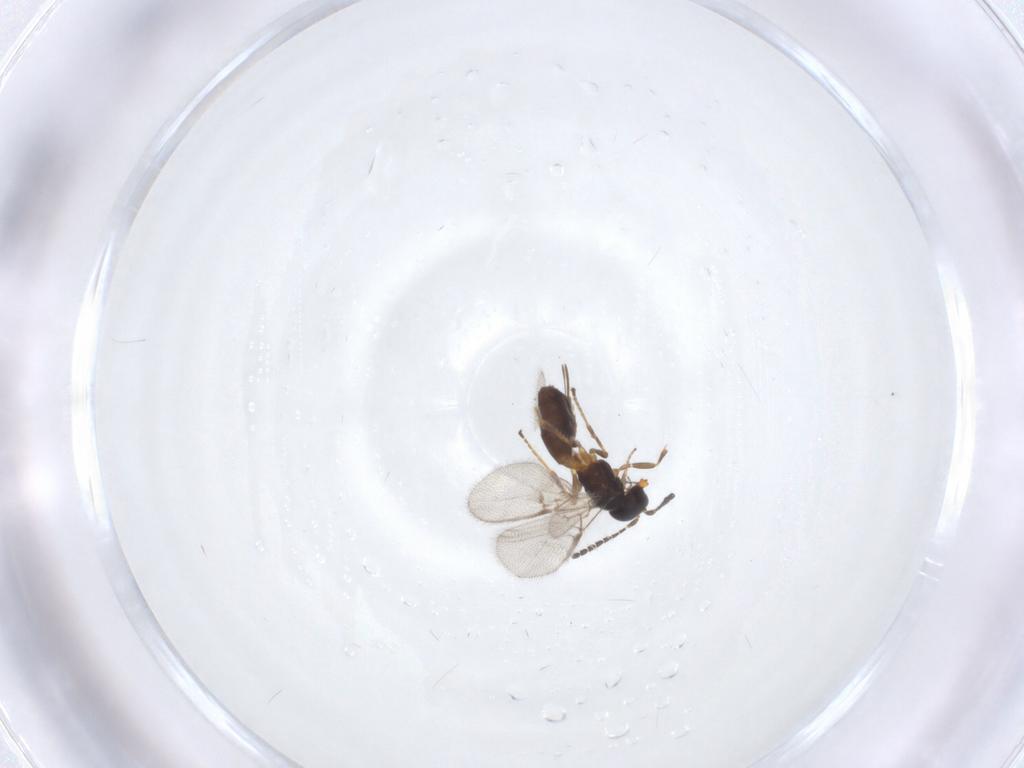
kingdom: Animalia
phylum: Arthropoda
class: Insecta
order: Hymenoptera
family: Braconidae
